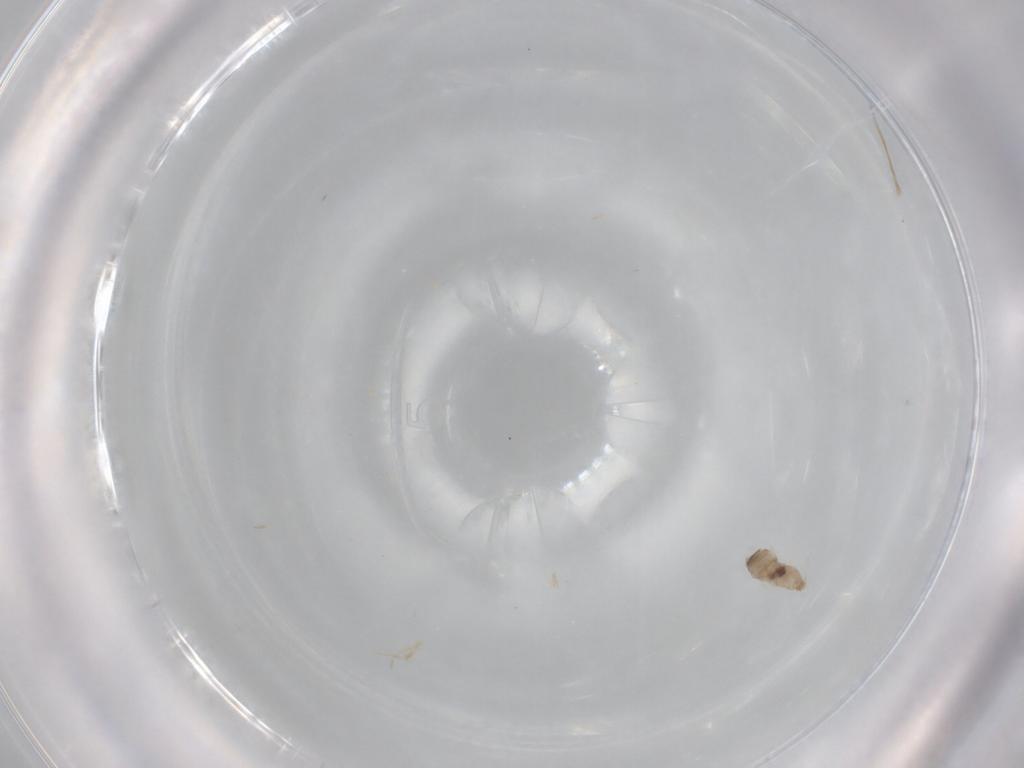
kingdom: Animalia
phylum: Arthropoda
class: Insecta
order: Diptera
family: Cecidomyiidae
